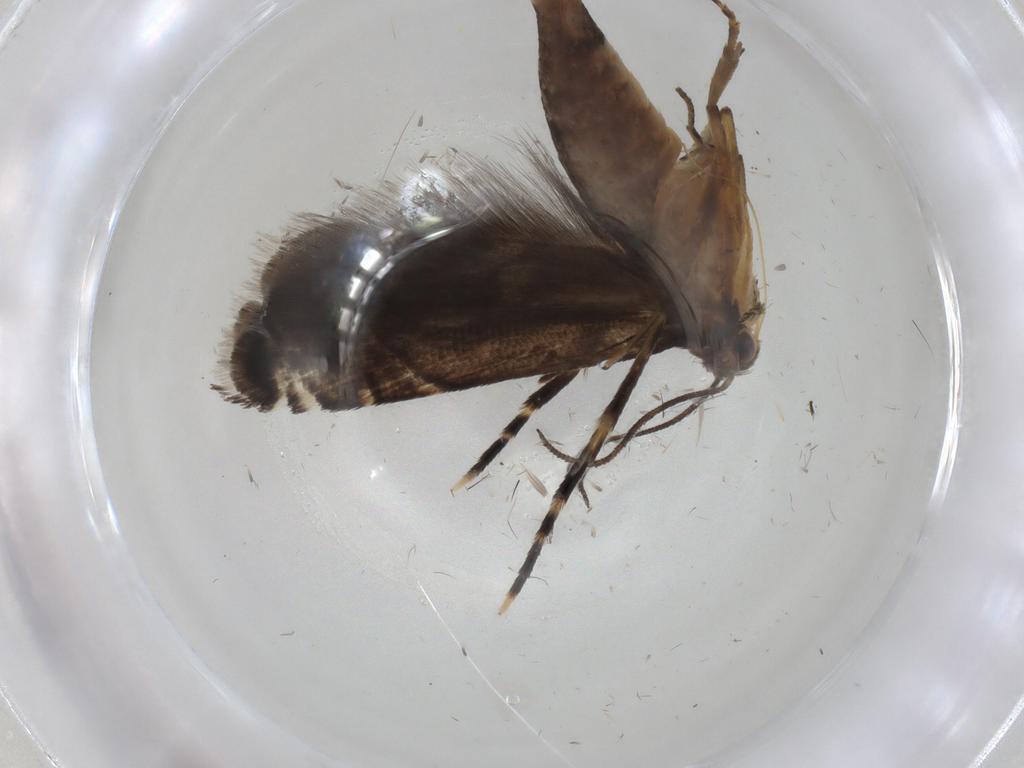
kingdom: Animalia
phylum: Arthropoda
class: Insecta
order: Lepidoptera
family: Glyphipterigidae
